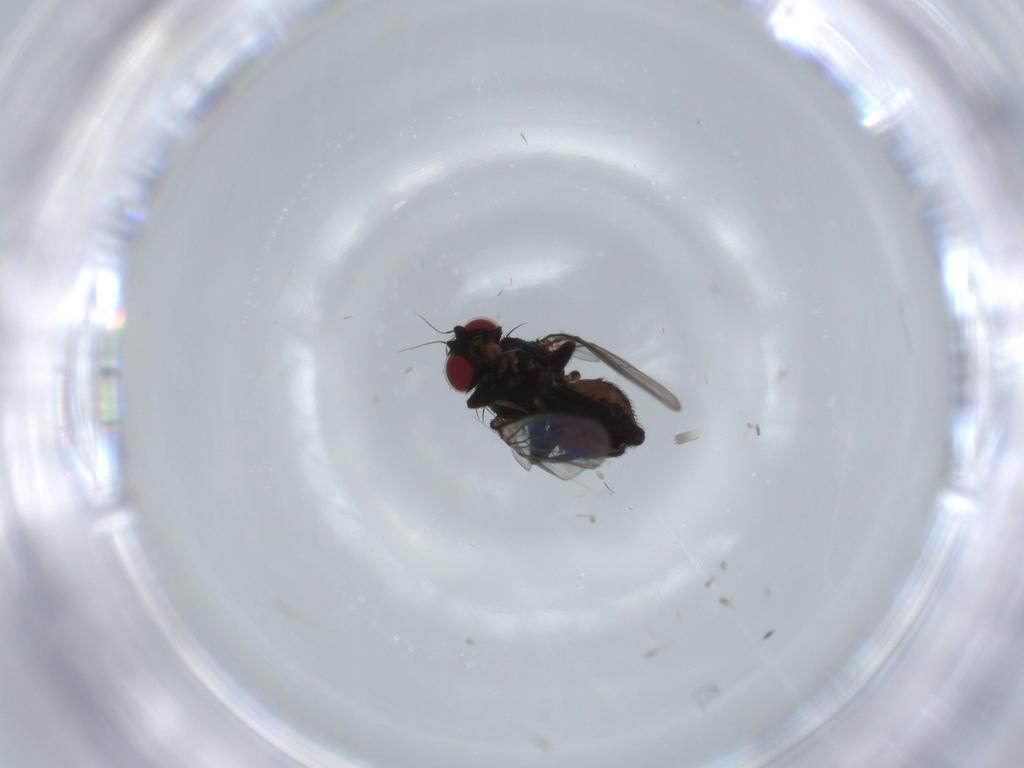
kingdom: Animalia
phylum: Arthropoda
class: Insecta
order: Diptera
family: Agromyzidae
